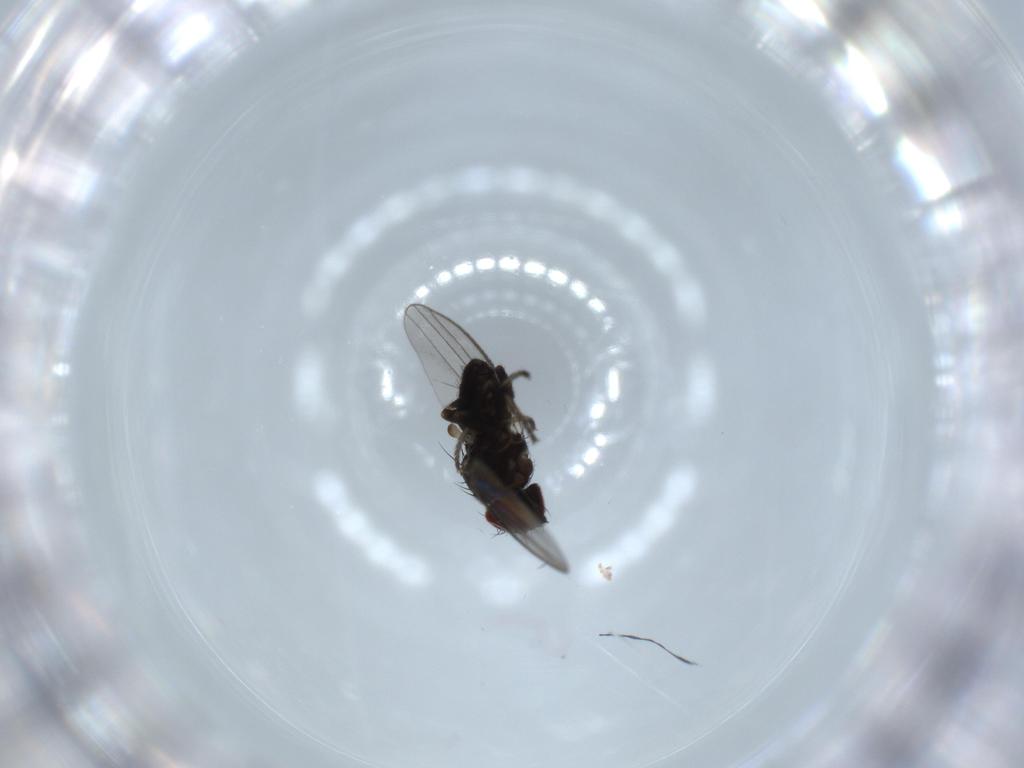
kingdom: Animalia
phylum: Arthropoda
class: Insecta
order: Diptera
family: Milichiidae
